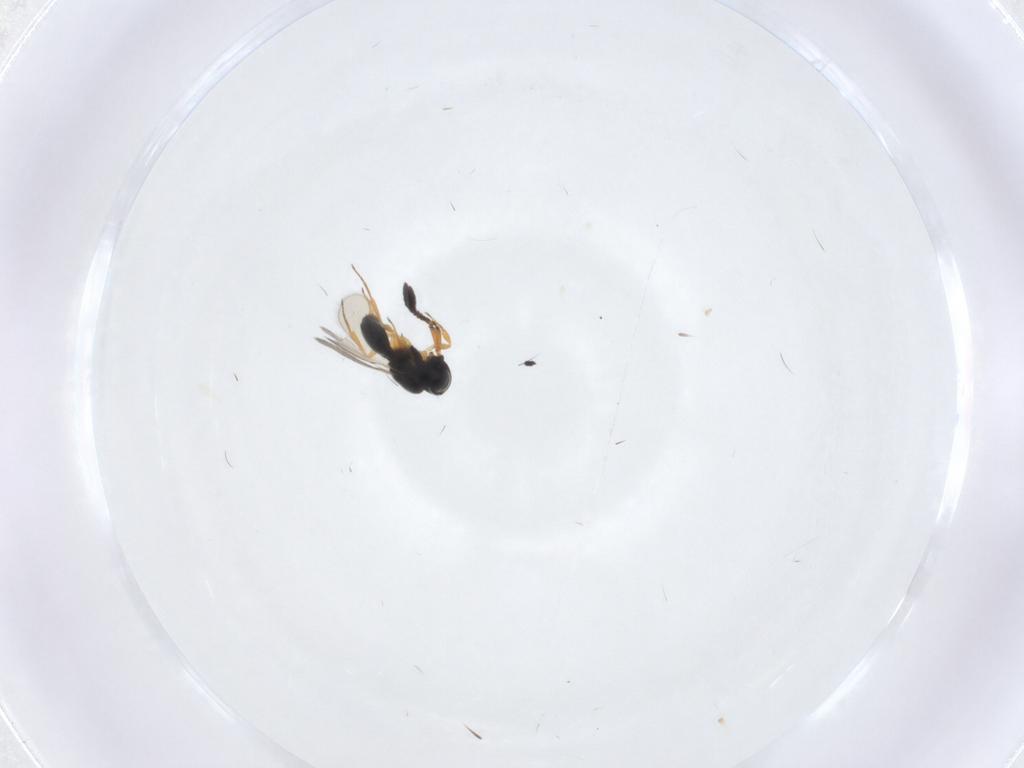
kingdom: Animalia
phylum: Arthropoda
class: Insecta
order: Hymenoptera
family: Scelionidae
